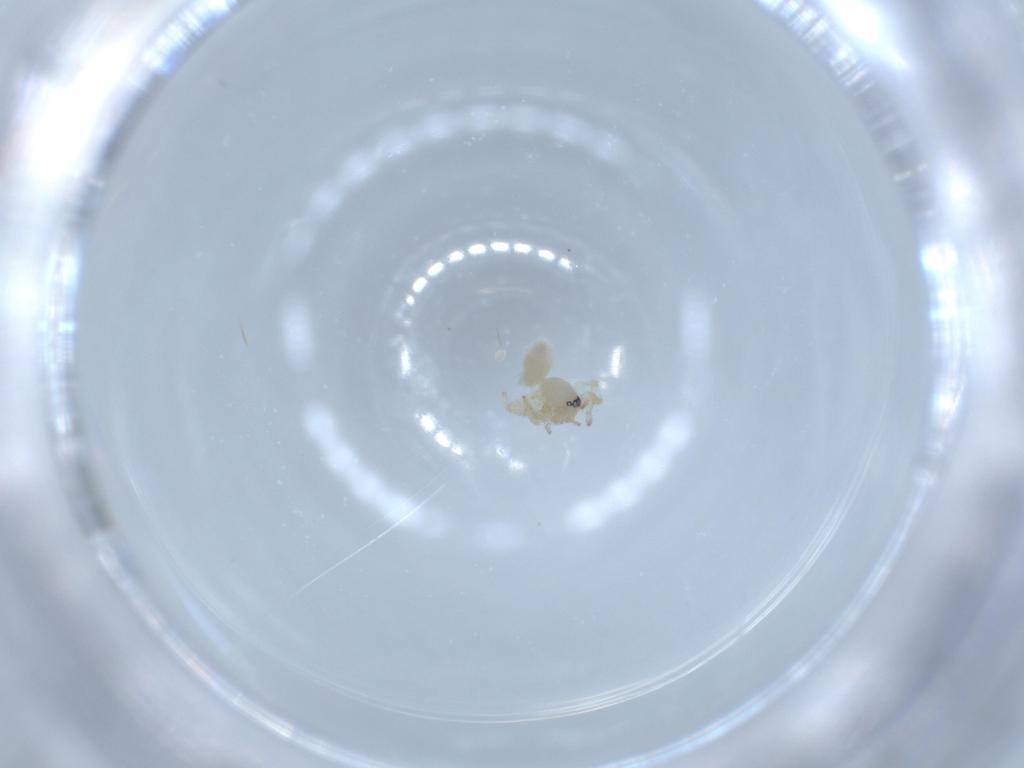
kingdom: Animalia
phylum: Arthropoda
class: Arachnida
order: Araneae
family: Oonopidae
